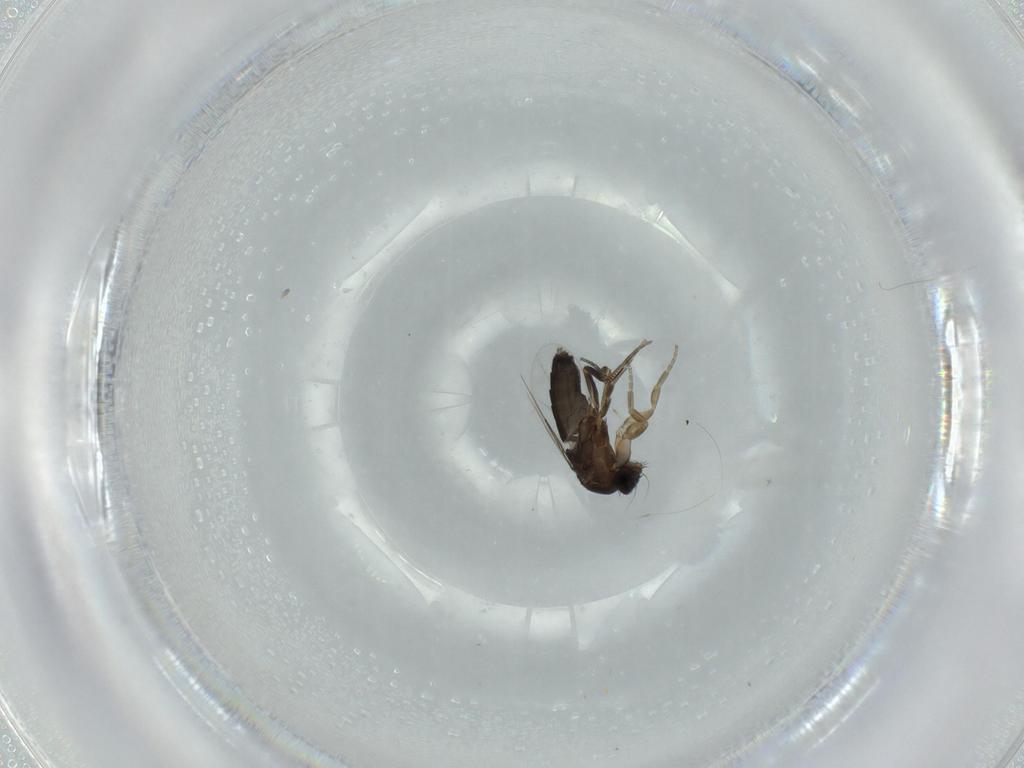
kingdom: Animalia
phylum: Arthropoda
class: Insecta
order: Diptera
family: Phoridae
